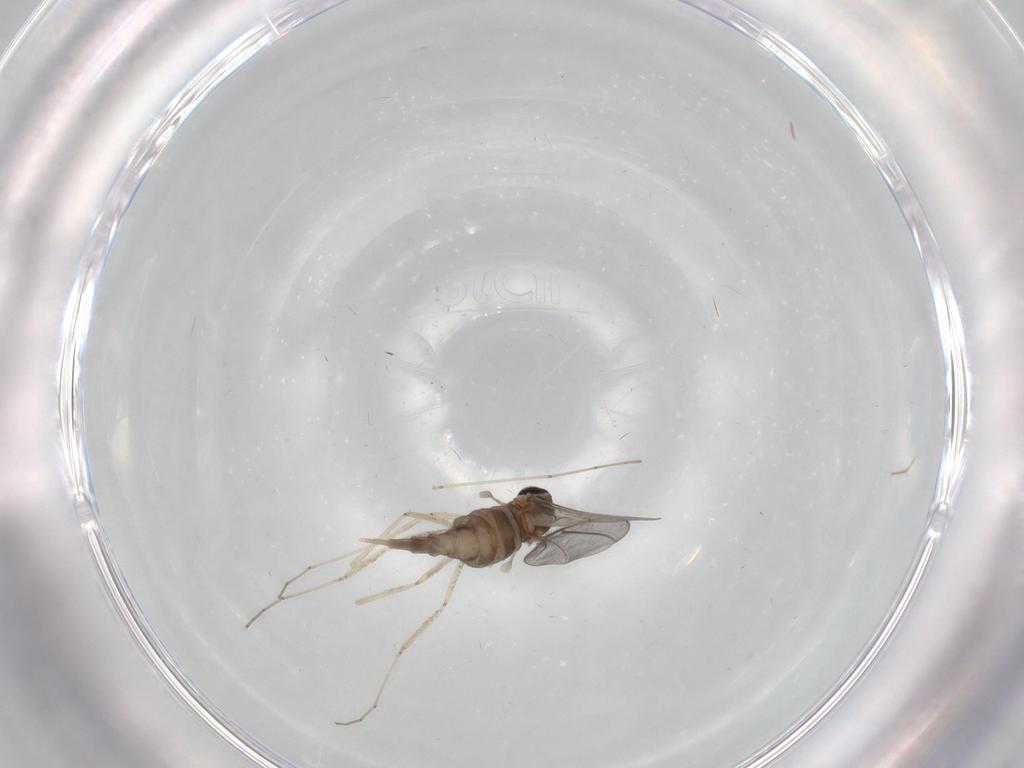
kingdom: Animalia
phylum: Arthropoda
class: Insecta
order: Diptera
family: Cecidomyiidae
